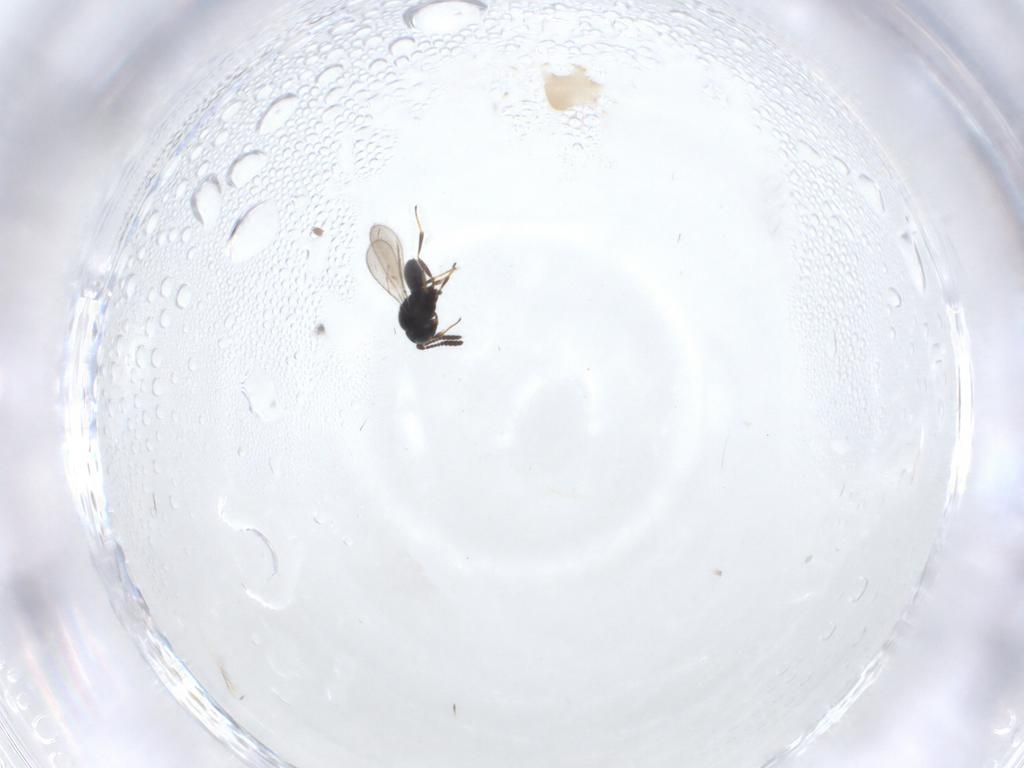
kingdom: Animalia
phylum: Arthropoda
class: Insecta
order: Hymenoptera
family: Scelionidae
